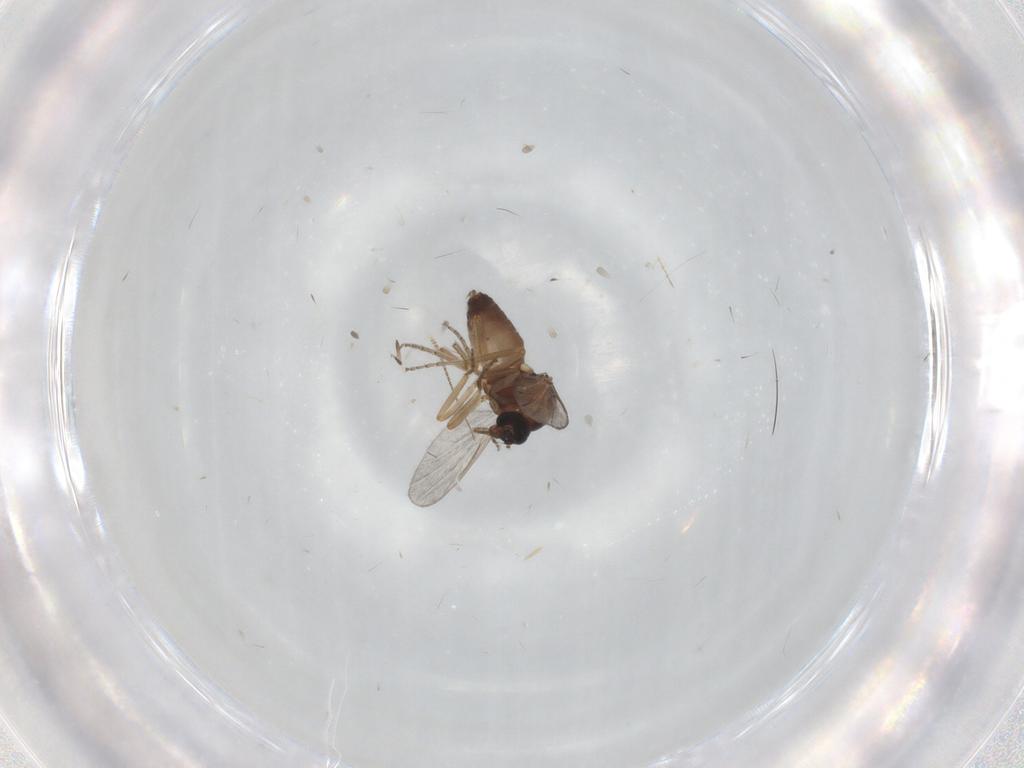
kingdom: Animalia
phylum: Arthropoda
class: Insecta
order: Diptera
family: Ceratopogonidae
